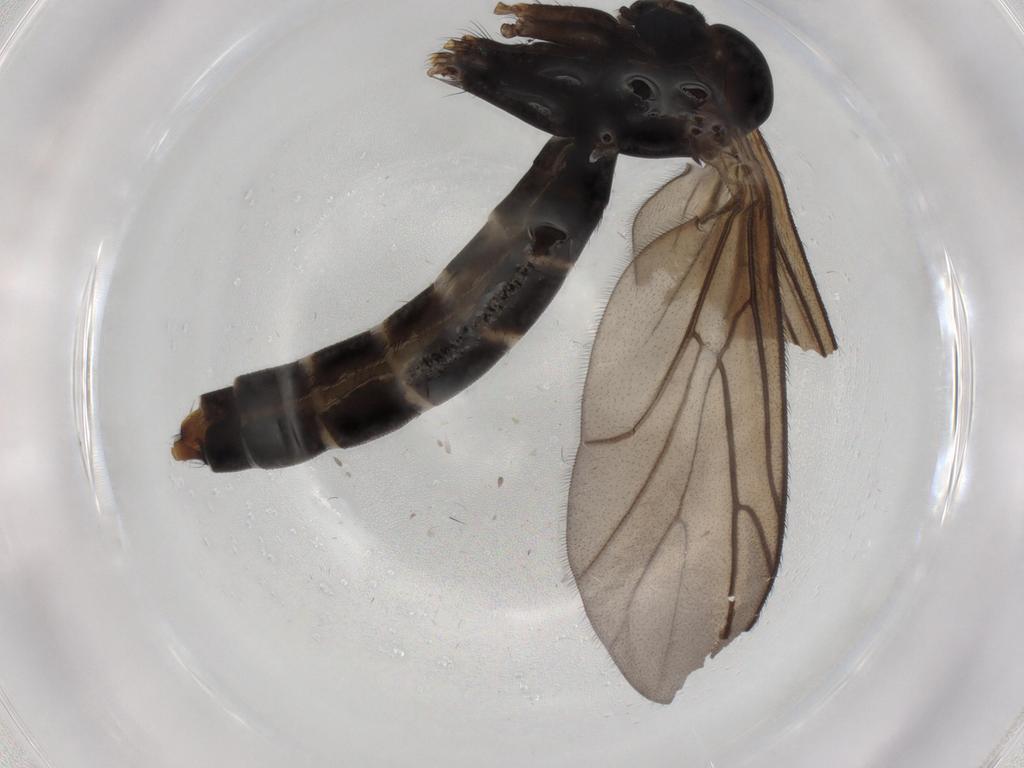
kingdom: Animalia
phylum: Arthropoda
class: Insecta
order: Diptera
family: Ditomyiidae
